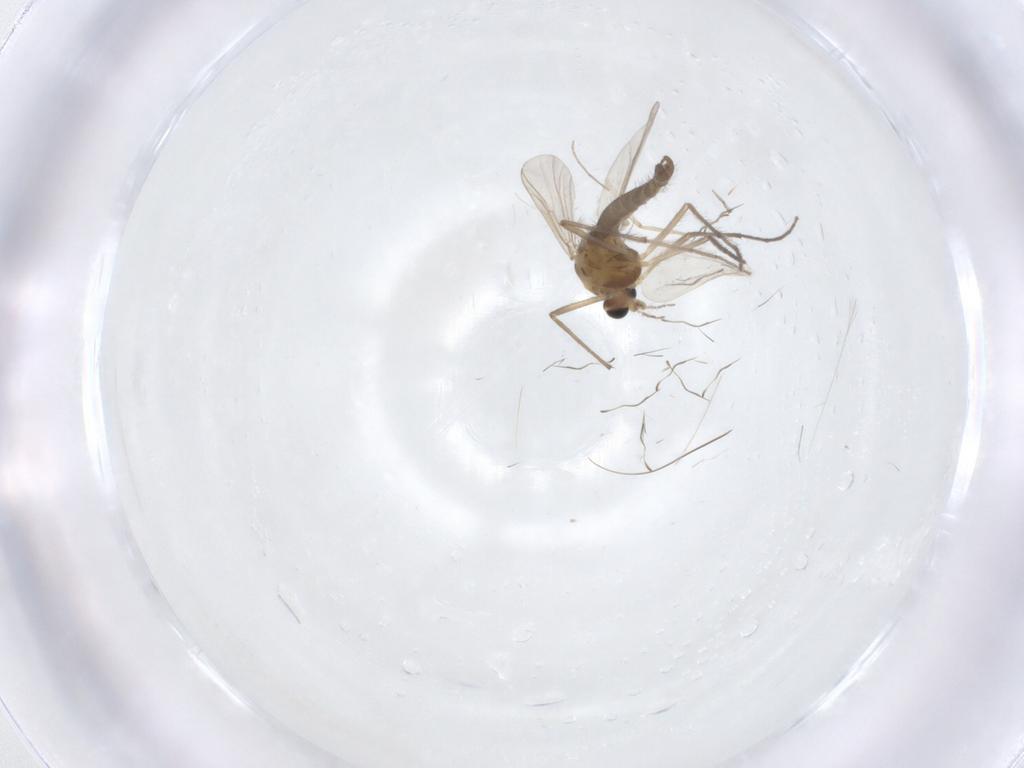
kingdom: Animalia
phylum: Arthropoda
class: Insecta
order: Diptera
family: Chironomidae
